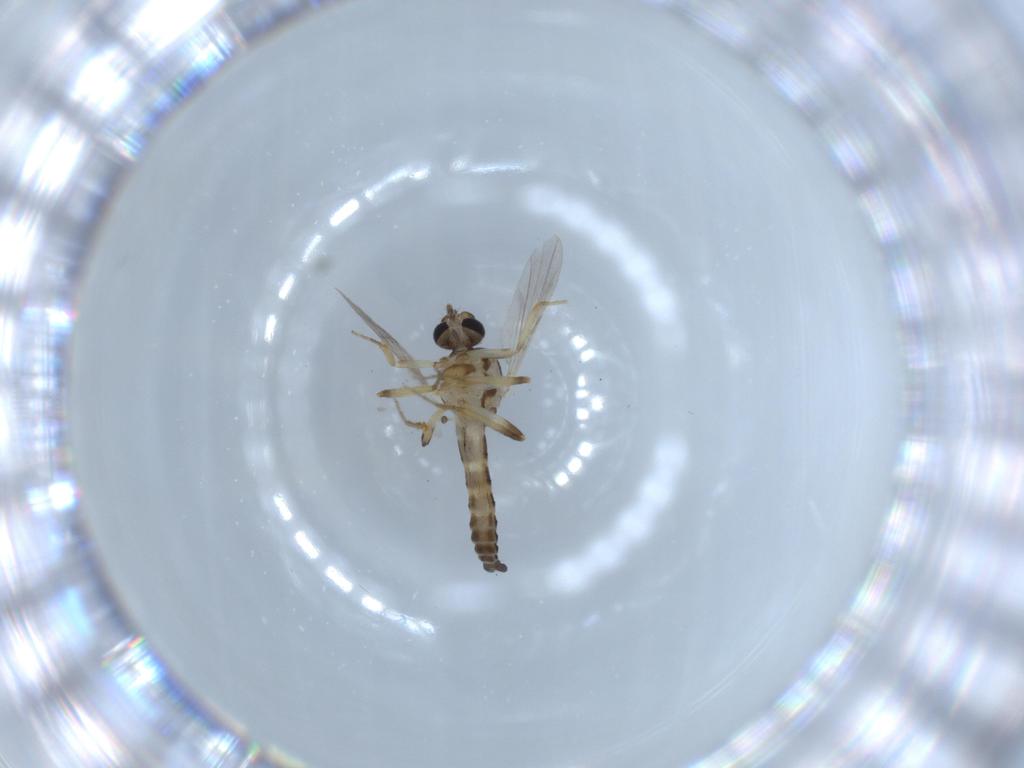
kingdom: Animalia
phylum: Arthropoda
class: Insecta
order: Diptera
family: Ceratopogonidae
